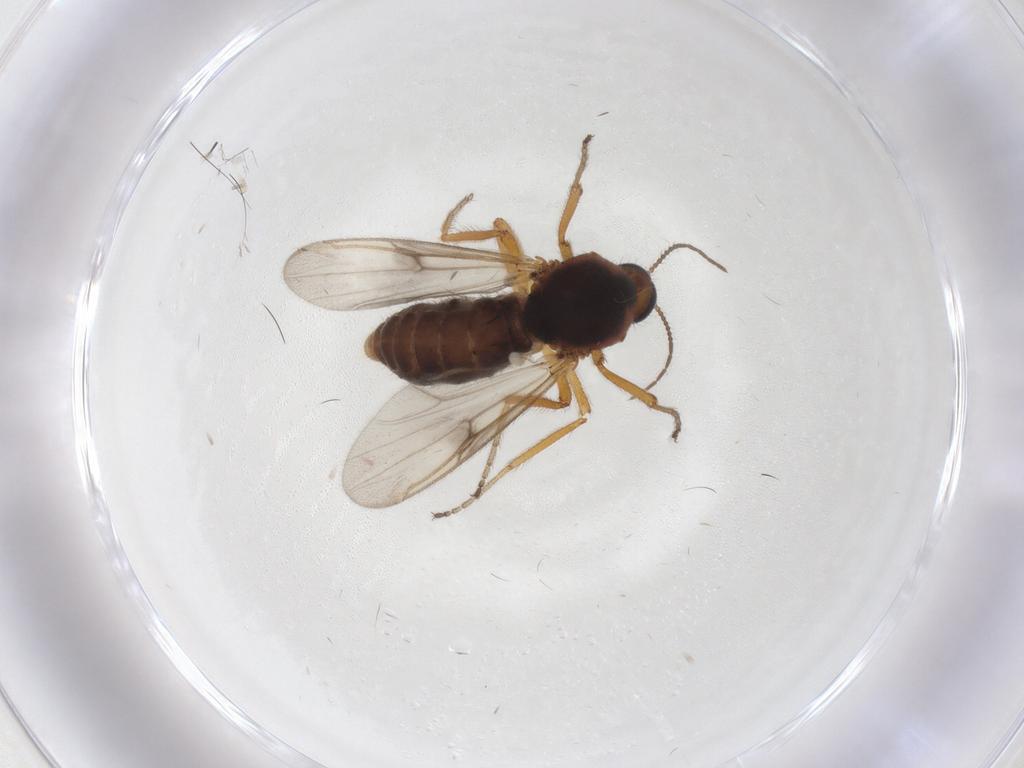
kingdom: Animalia
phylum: Arthropoda
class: Insecta
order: Diptera
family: Ceratopogonidae
